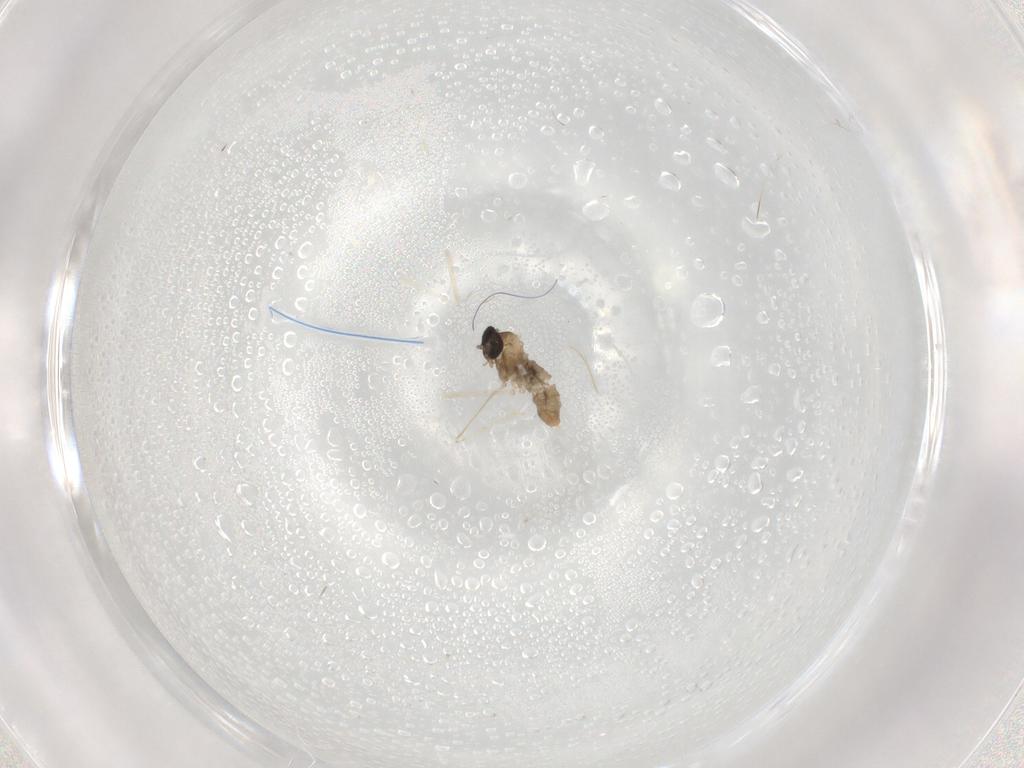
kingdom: Animalia
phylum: Arthropoda
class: Insecta
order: Diptera
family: Cecidomyiidae
